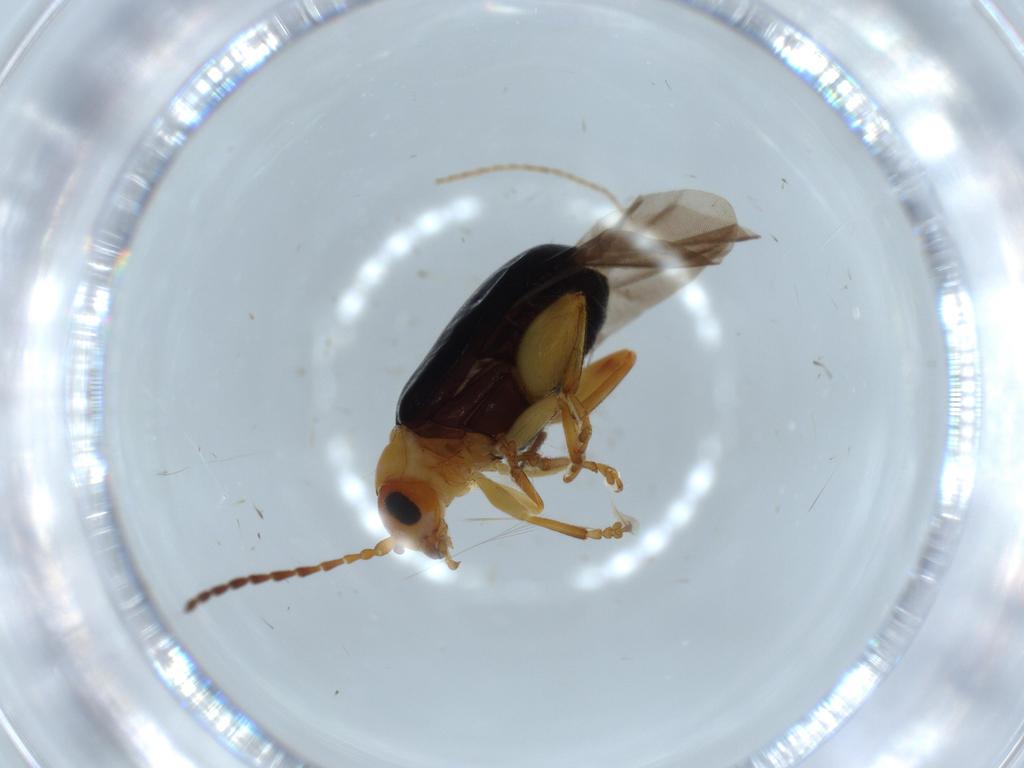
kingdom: Animalia
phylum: Arthropoda
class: Insecta
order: Coleoptera
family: Chrysomelidae
